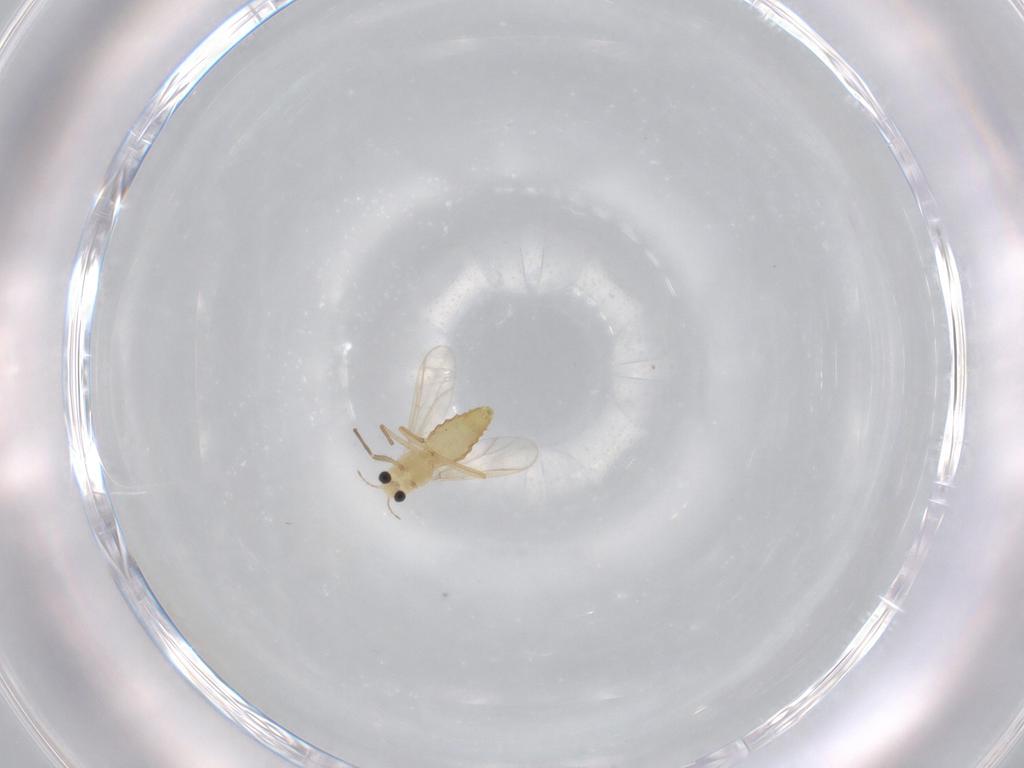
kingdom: Animalia
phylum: Arthropoda
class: Insecta
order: Diptera
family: Chironomidae
